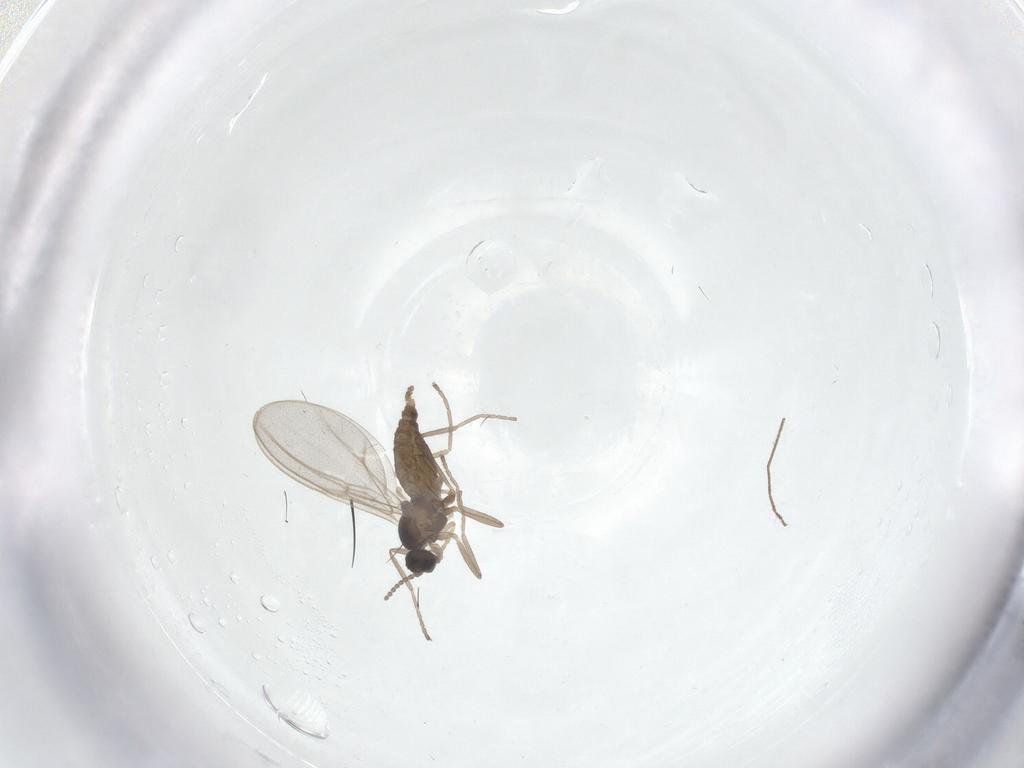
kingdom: Animalia
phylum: Arthropoda
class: Insecta
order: Diptera
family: Cecidomyiidae
